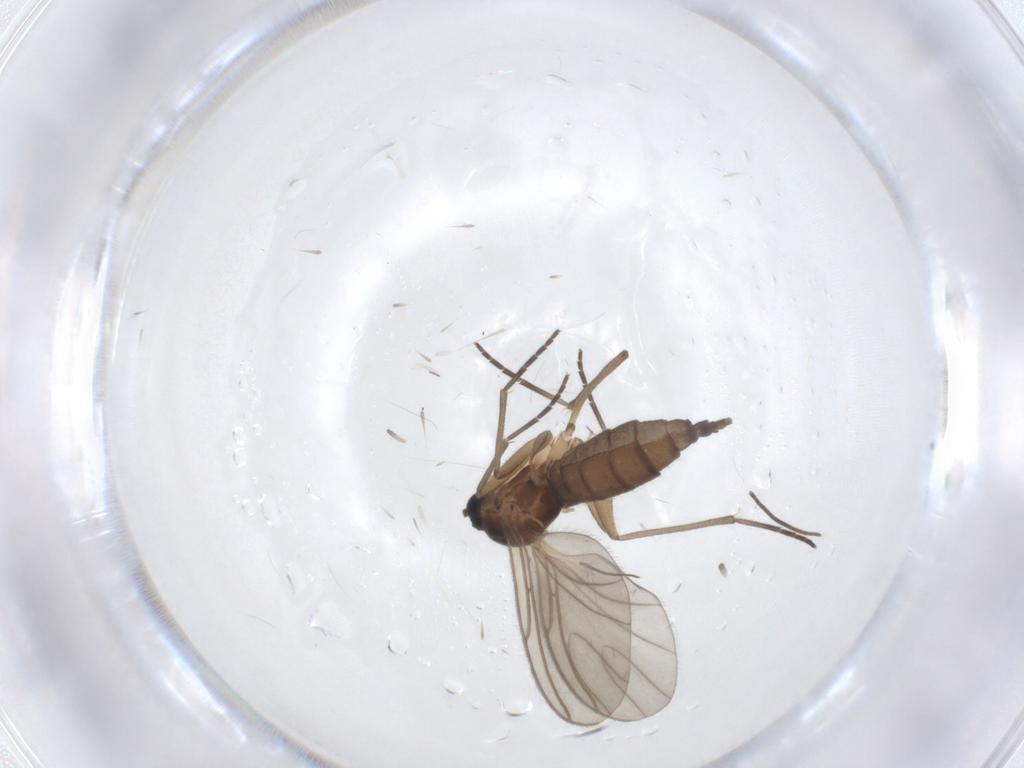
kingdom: Animalia
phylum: Arthropoda
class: Insecta
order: Diptera
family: Sciaridae
